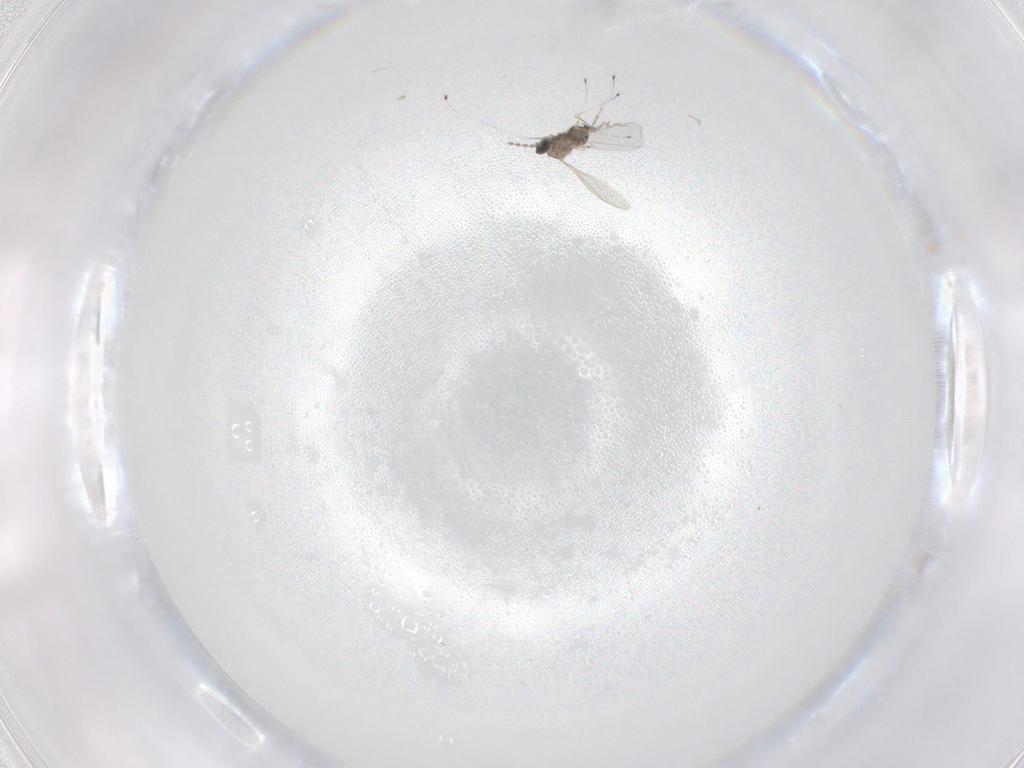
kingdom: Animalia
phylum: Arthropoda
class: Insecta
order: Diptera
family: Cecidomyiidae
